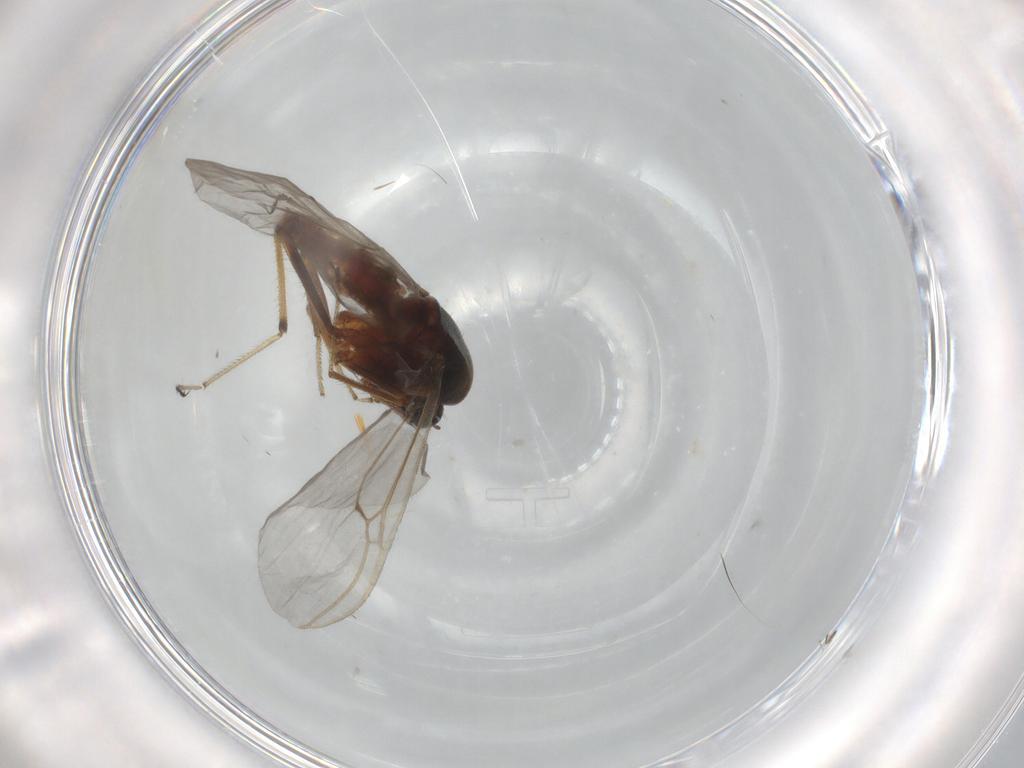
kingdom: Animalia
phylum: Arthropoda
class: Insecta
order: Diptera
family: Ceratopogonidae
